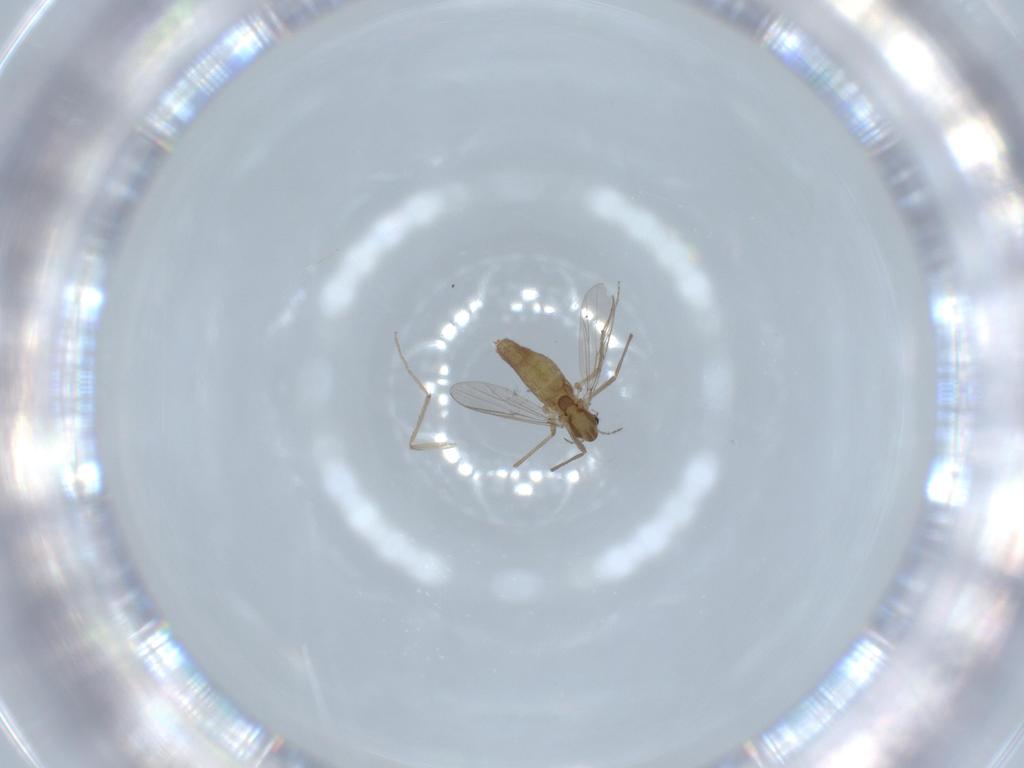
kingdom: Animalia
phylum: Arthropoda
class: Insecta
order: Diptera
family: Chironomidae
